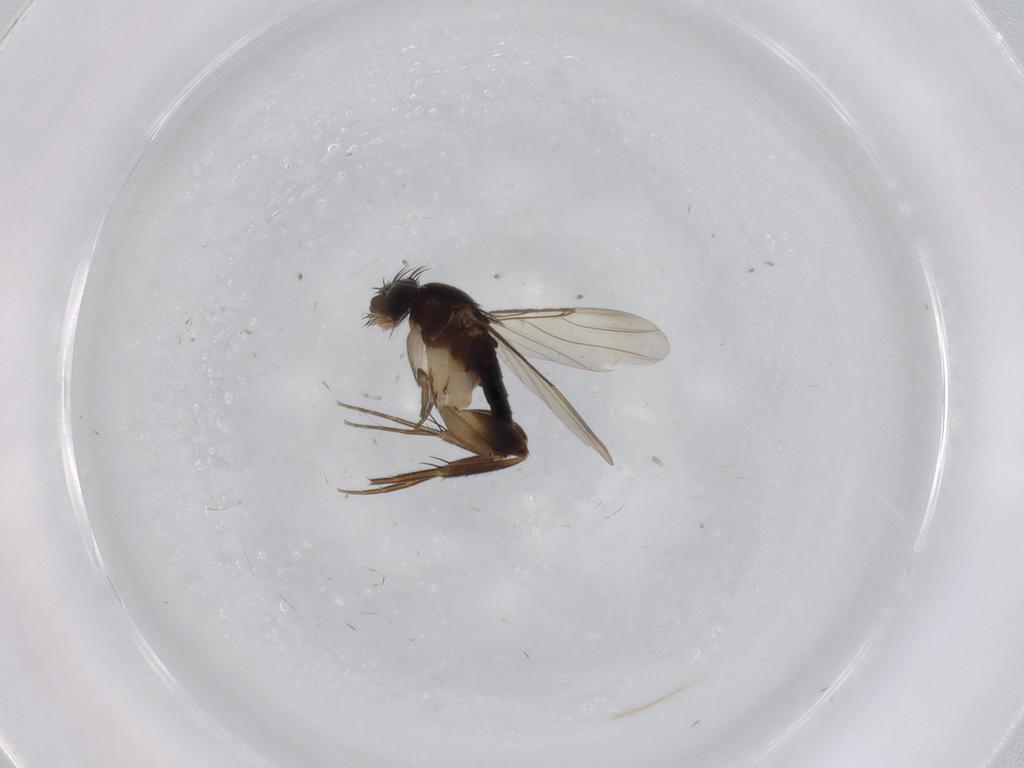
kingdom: Animalia
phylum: Arthropoda
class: Insecta
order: Diptera
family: Phoridae
